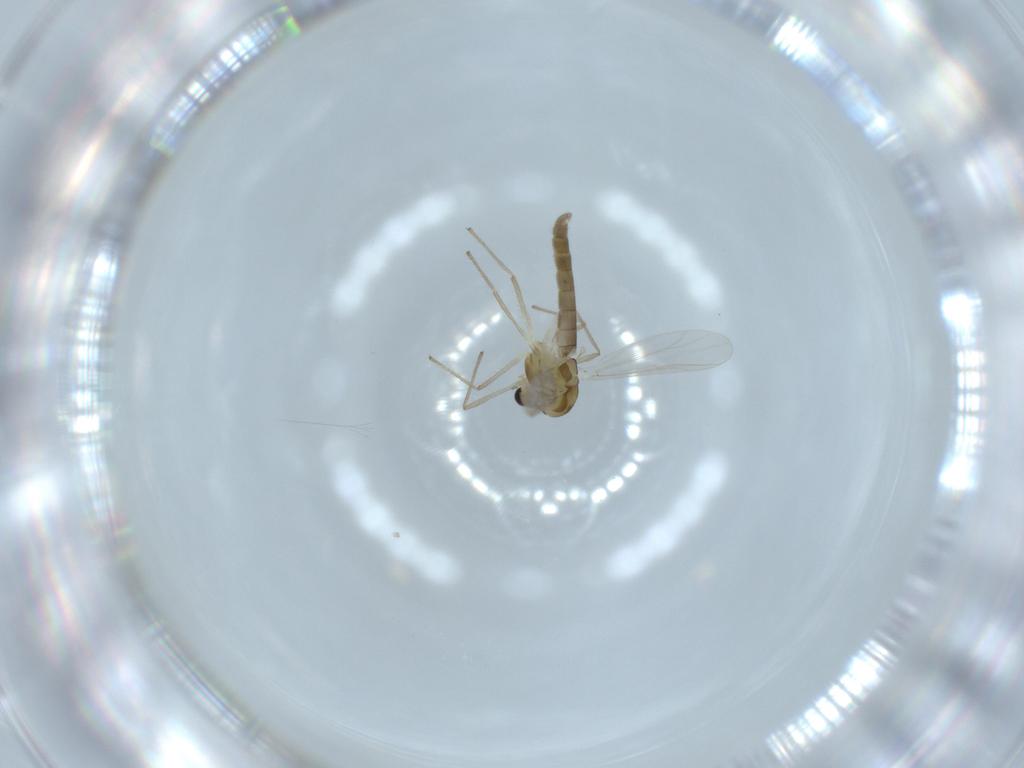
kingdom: Animalia
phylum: Arthropoda
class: Insecta
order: Diptera
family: Chironomidae
